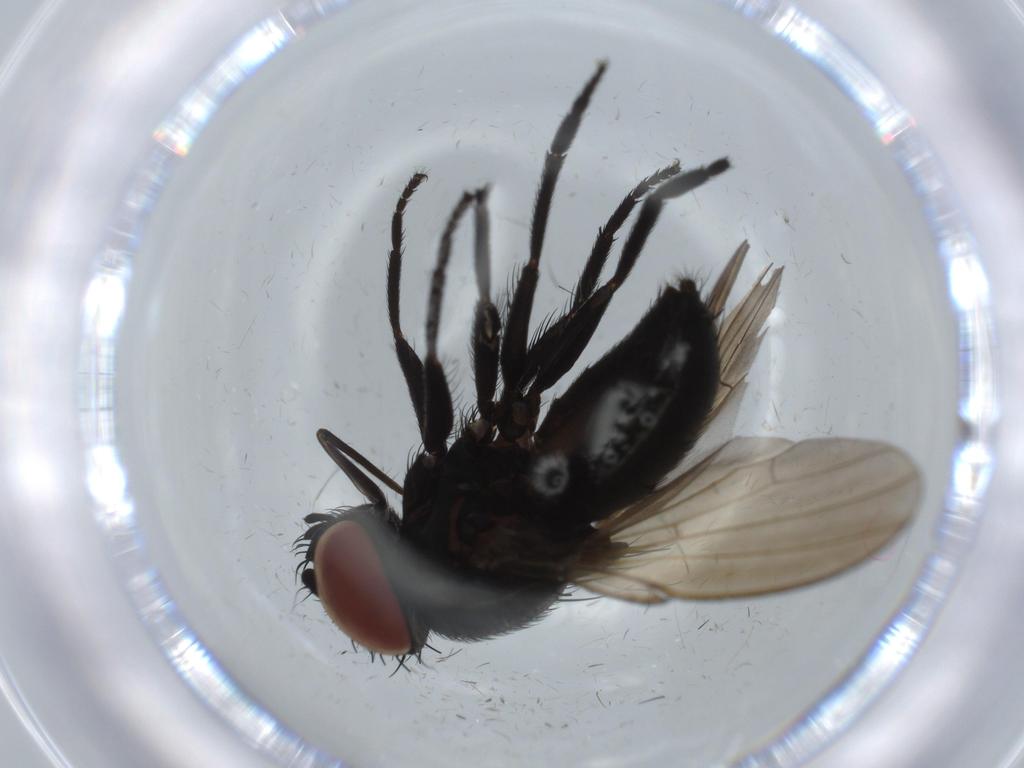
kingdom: Animalia
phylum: Arthropoda
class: Insecta
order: Diptera
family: Milichiidae
